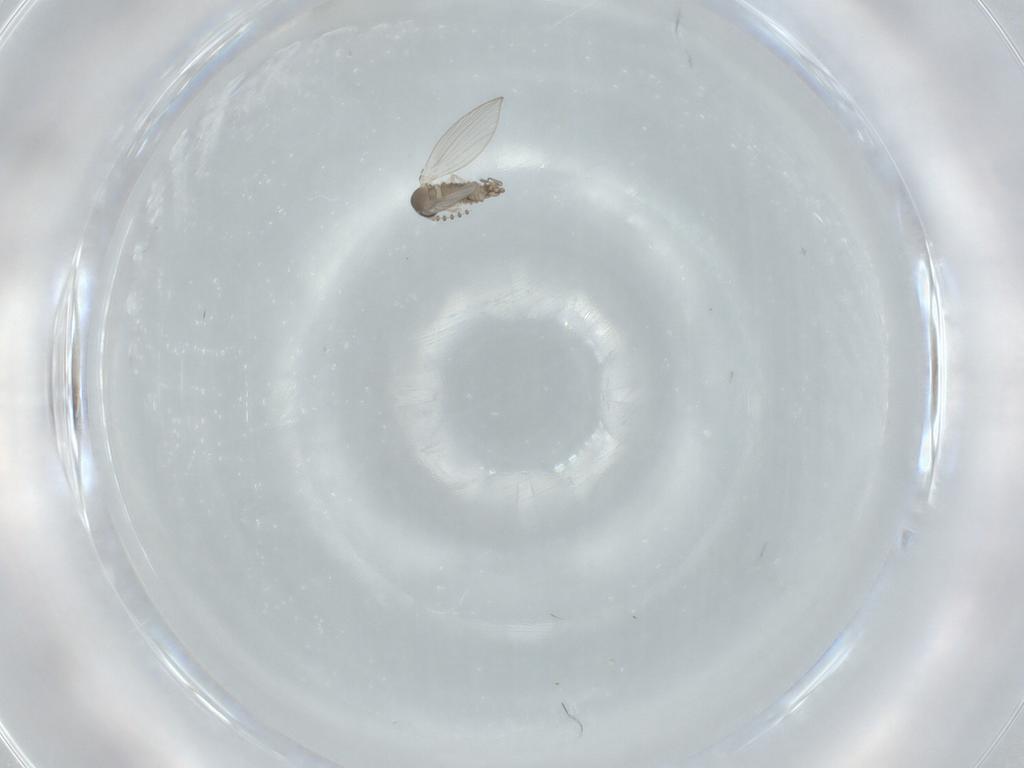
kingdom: Animalia
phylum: Arthropoda
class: Insecta
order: Diptera
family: Psychodidae
